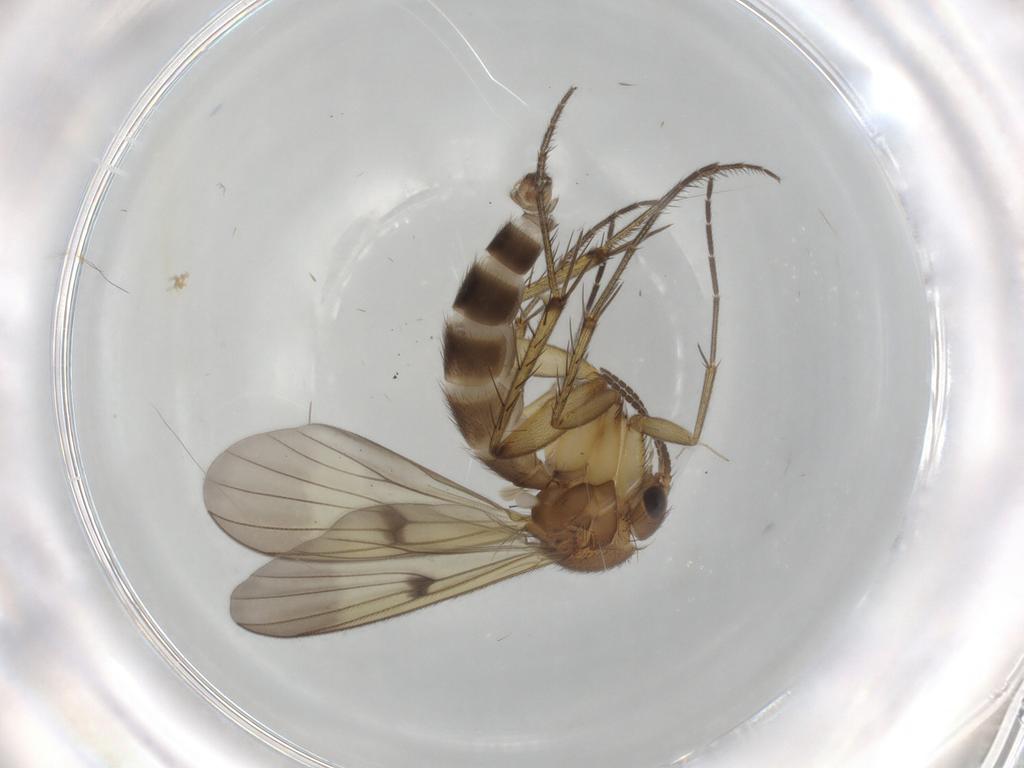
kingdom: Animalia
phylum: Arthropoda
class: Insecta
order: Diptera
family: Mycetophilidae
